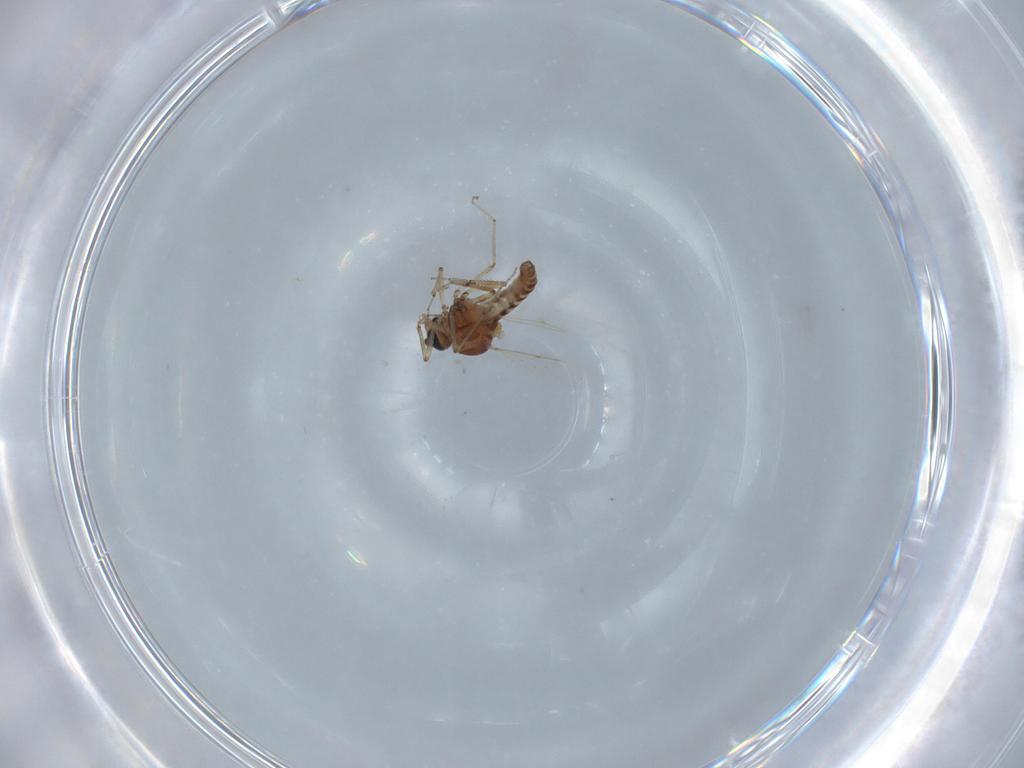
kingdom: Animalia
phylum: Arthropoda
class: Insecta
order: Diptera
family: Ceratopogonidae
